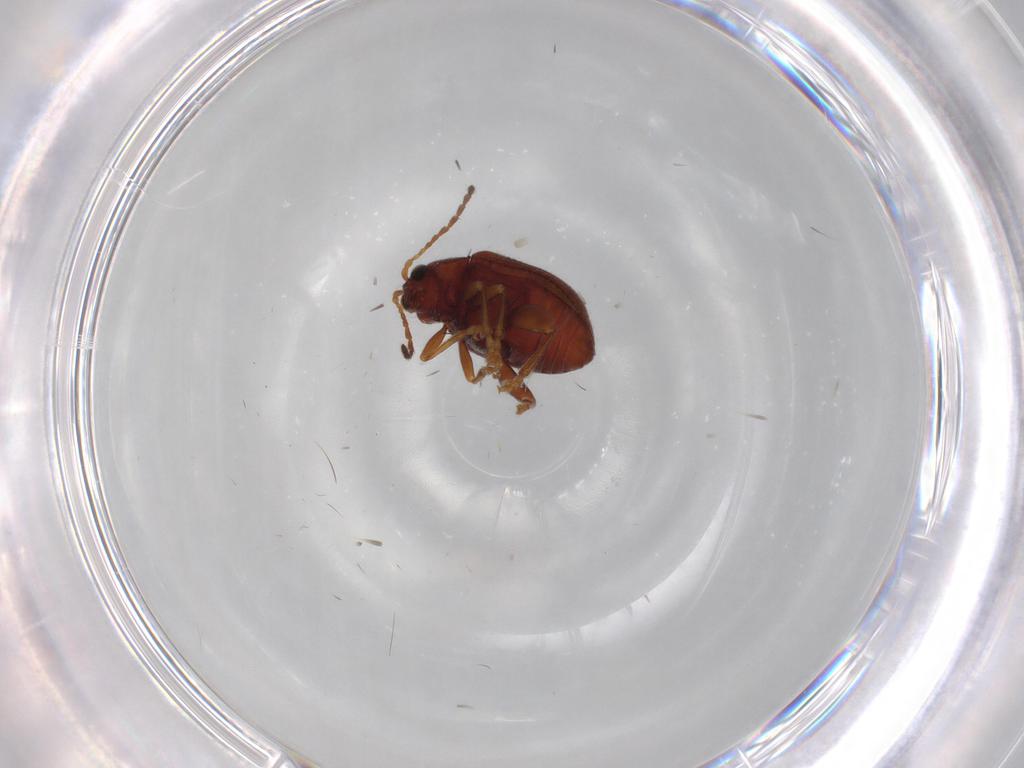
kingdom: Animalia
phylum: Arthropoda
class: Insecta
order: Coleoptera
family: Chrysomelidae
